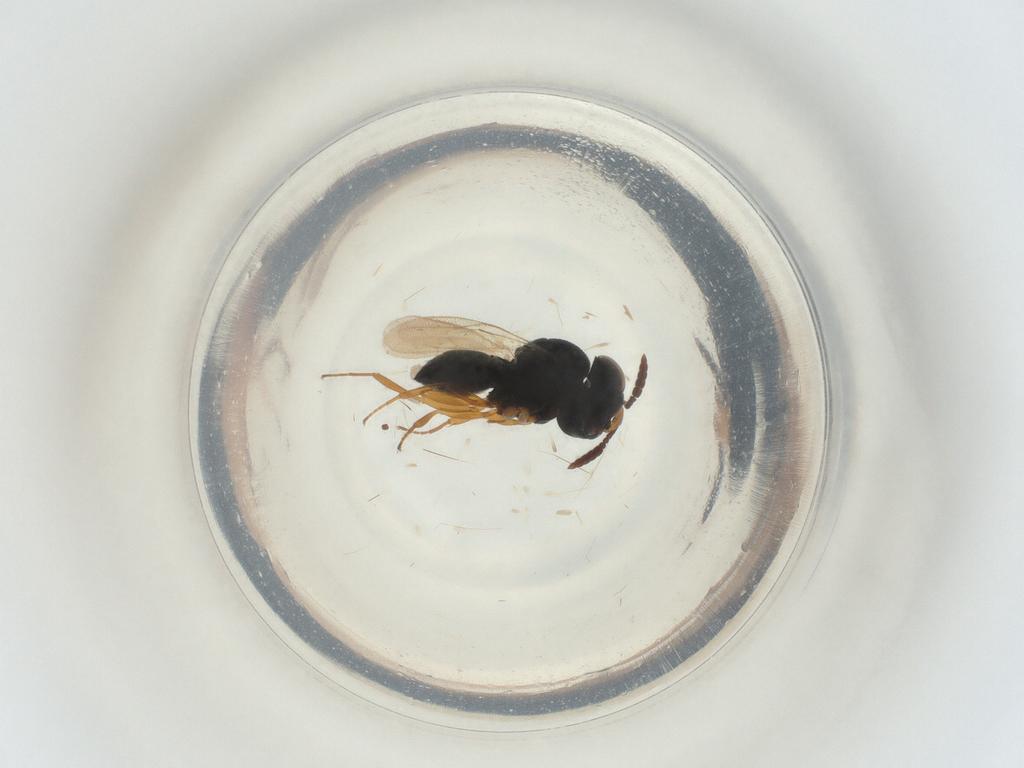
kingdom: Animalia
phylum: Arthropoda
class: Insecta
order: Hymenoptera
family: Scelionidae
